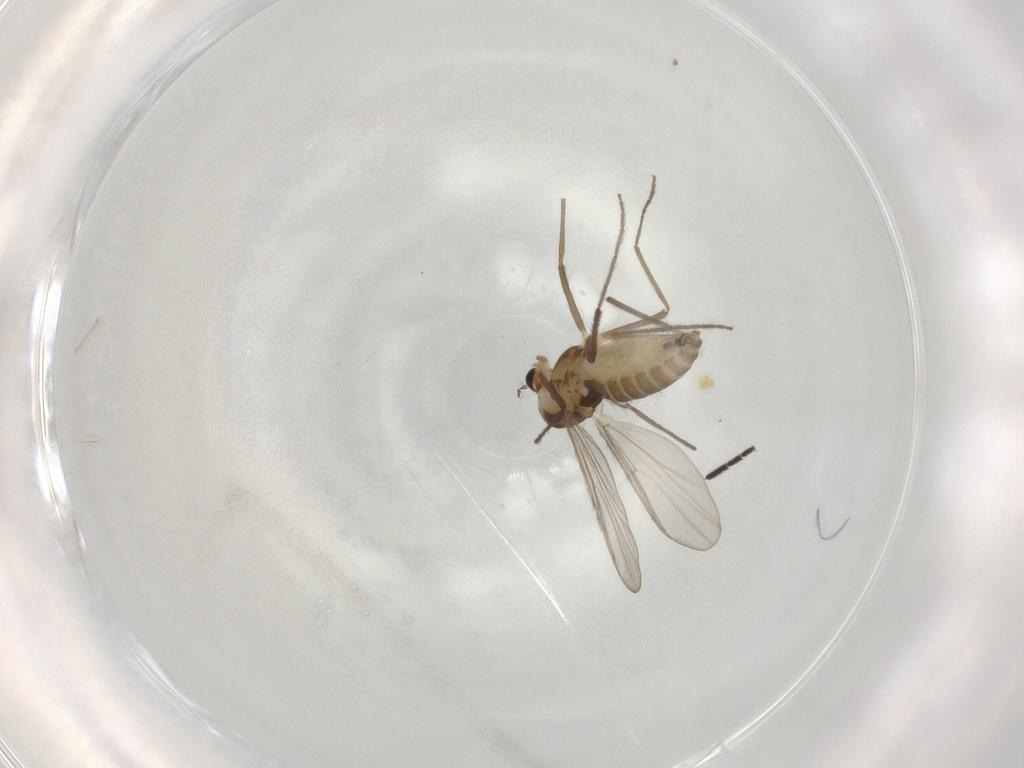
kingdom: Animalia
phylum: Arthropoda
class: Insecta
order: Diptera
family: Chironomidae
